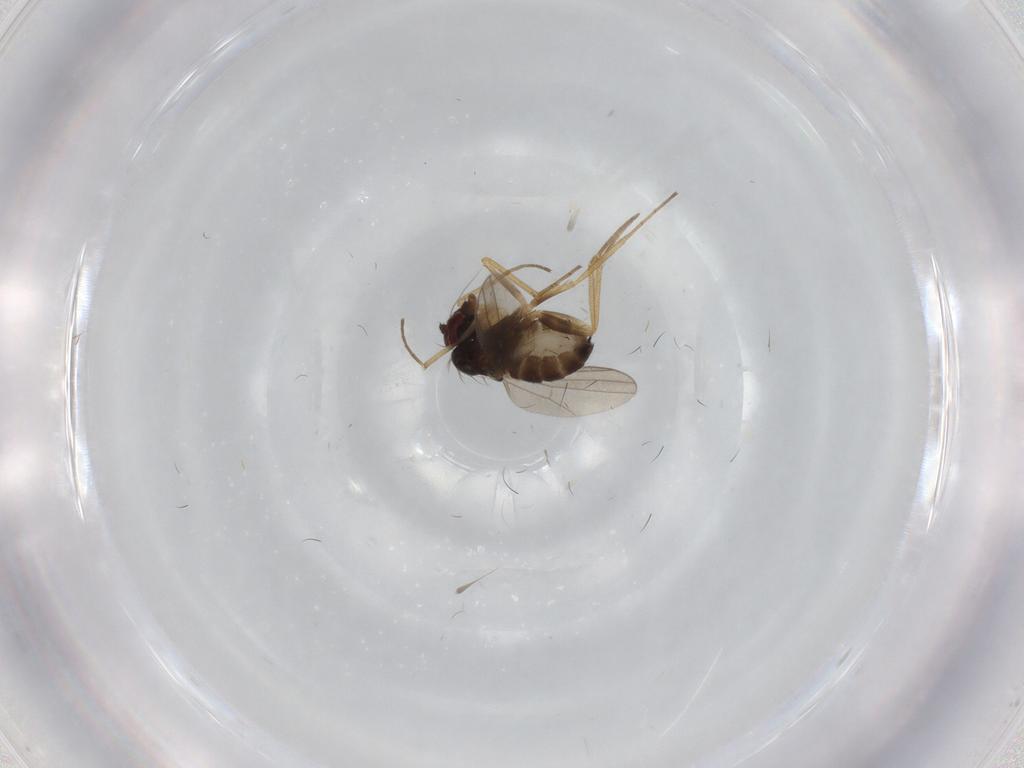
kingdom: Animalia
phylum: Arthropoda
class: Insecta
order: Diptera
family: Dolichopodidae
